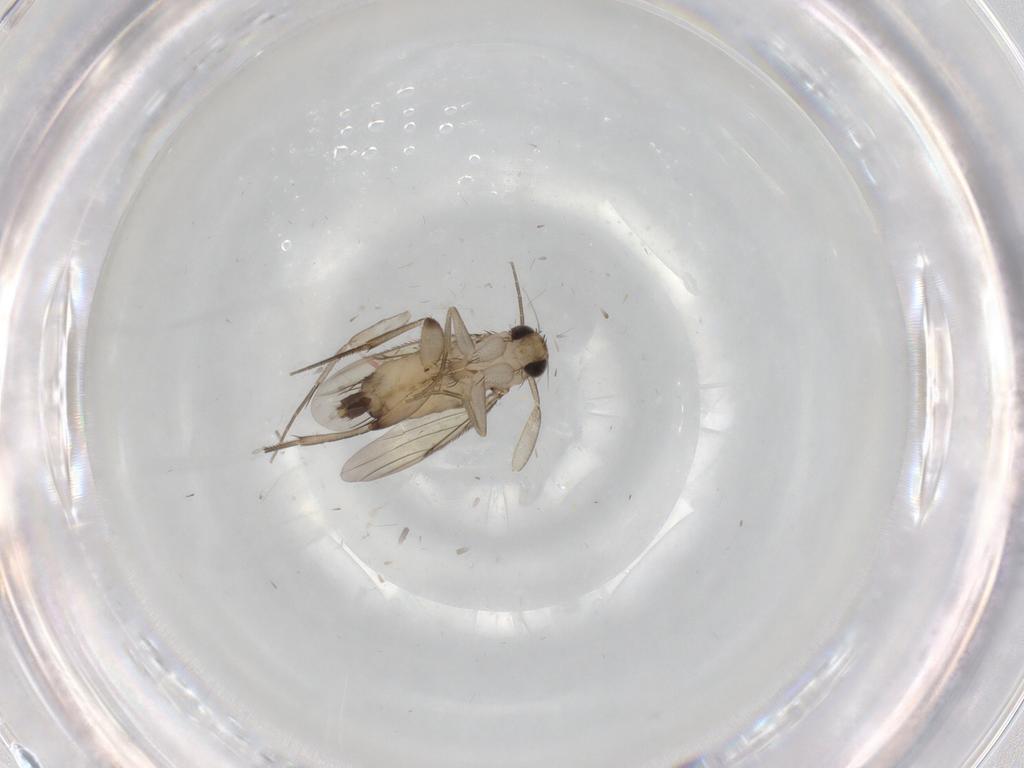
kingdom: Animalia
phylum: Arthropoda
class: Insecta
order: Diptera
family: Phoridae
